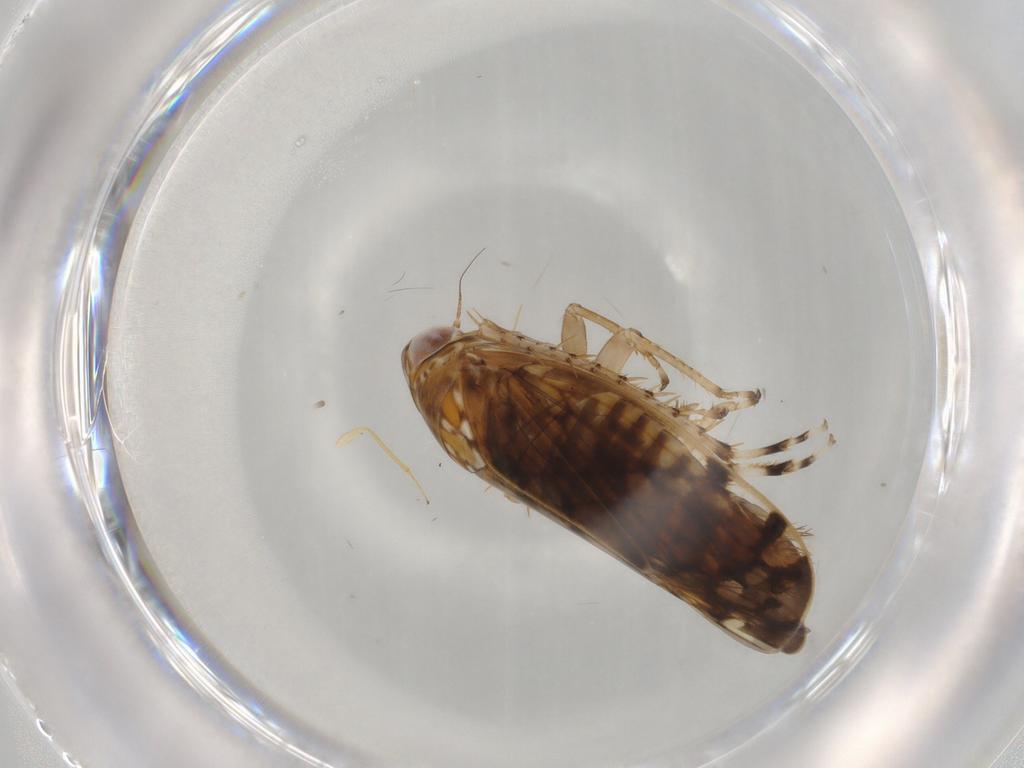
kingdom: Animalia
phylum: Arthropoda
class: Insecta
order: Hemiptera
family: Cicadellidae
